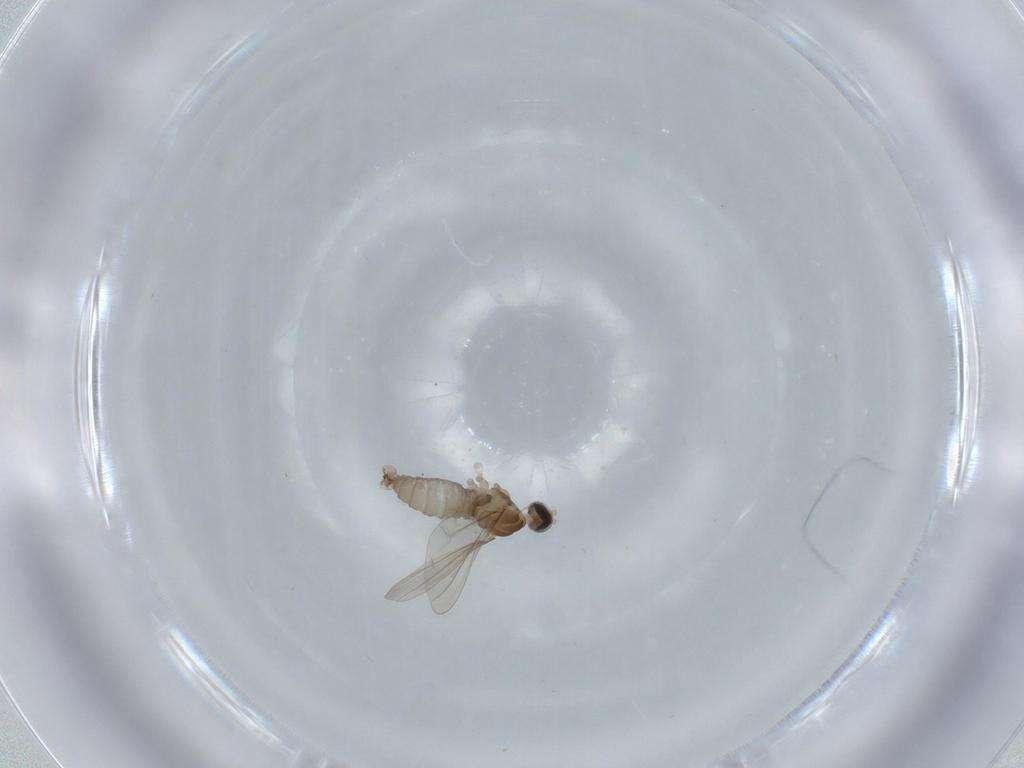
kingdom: Animalia
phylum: Arthropoda
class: Insecta
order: Diptera
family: Cecidomyiidae
